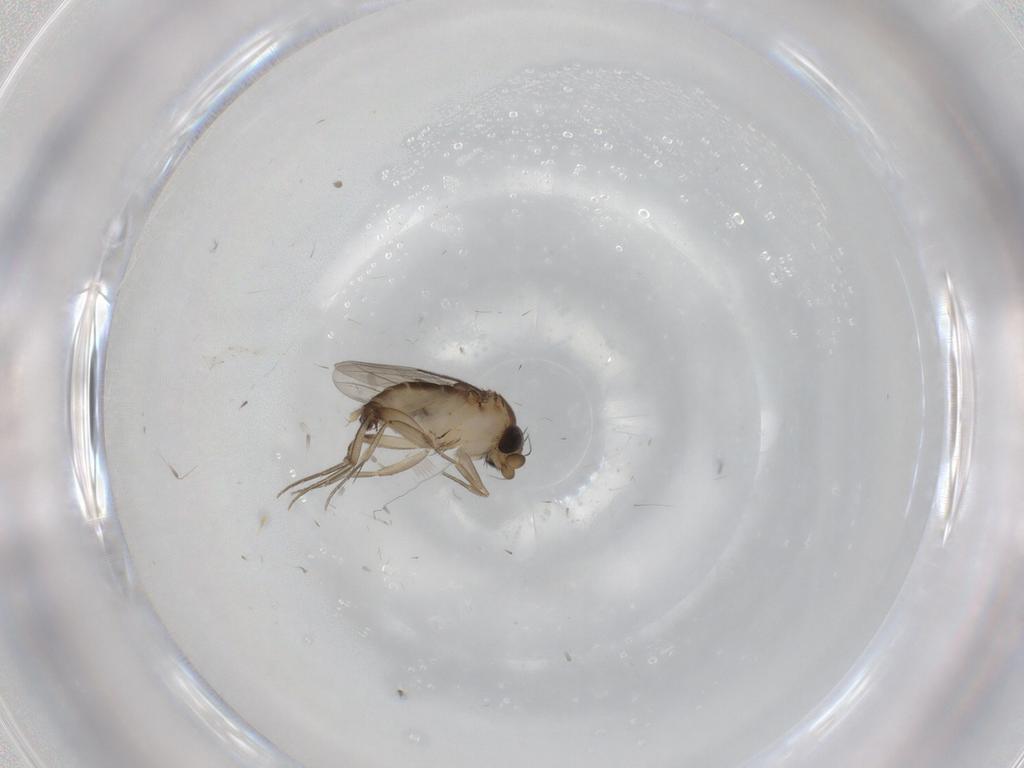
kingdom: Animalia
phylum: Arthropoda
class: Insecta
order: Diptera
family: Phoridae
